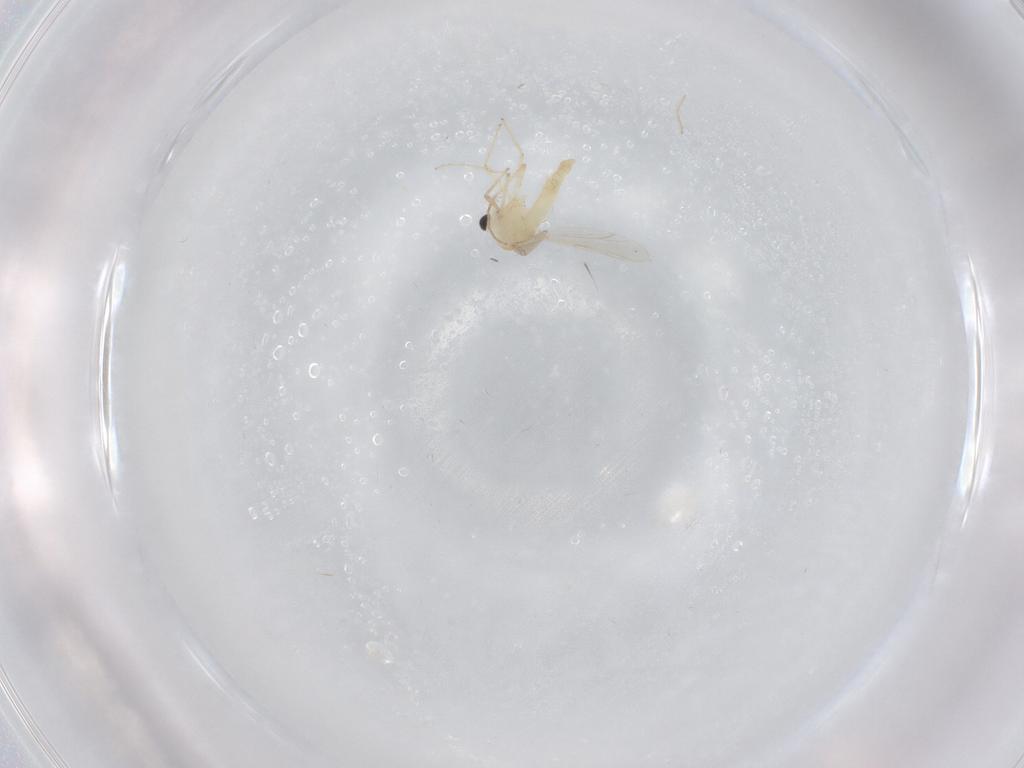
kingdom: Animalia
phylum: Arthropoda
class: Insecta
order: Diptera
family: Chironomidae
